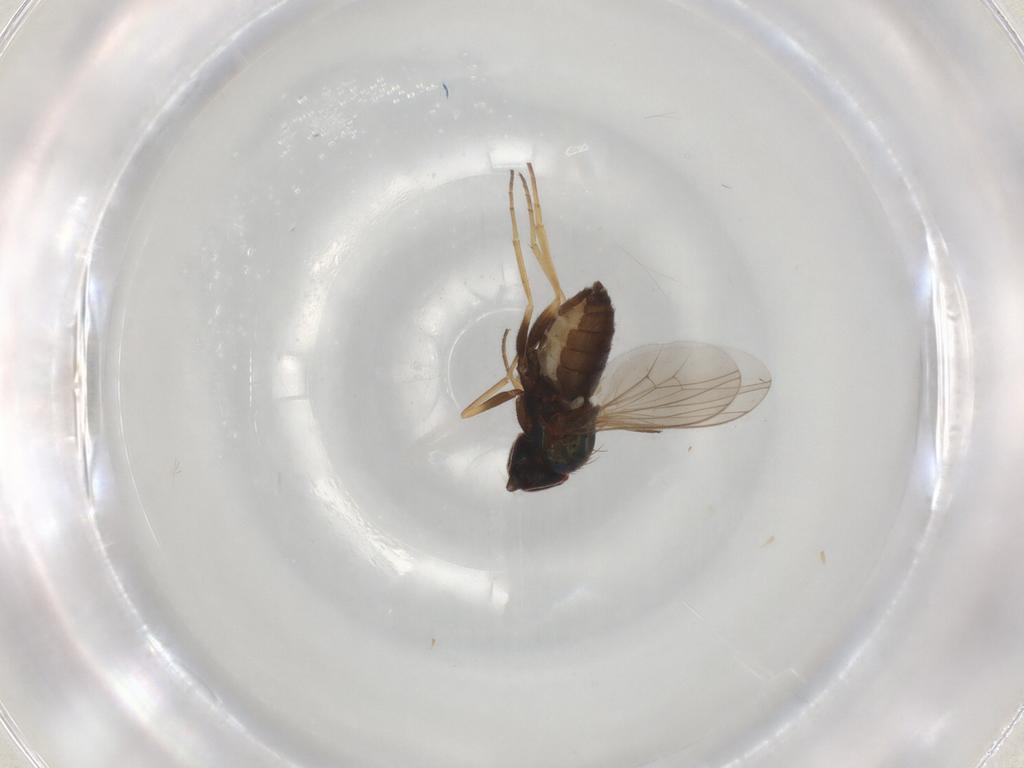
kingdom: Animalia
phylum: Arthropoda
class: Insecta
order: Diptera
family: Dolichopodidae
